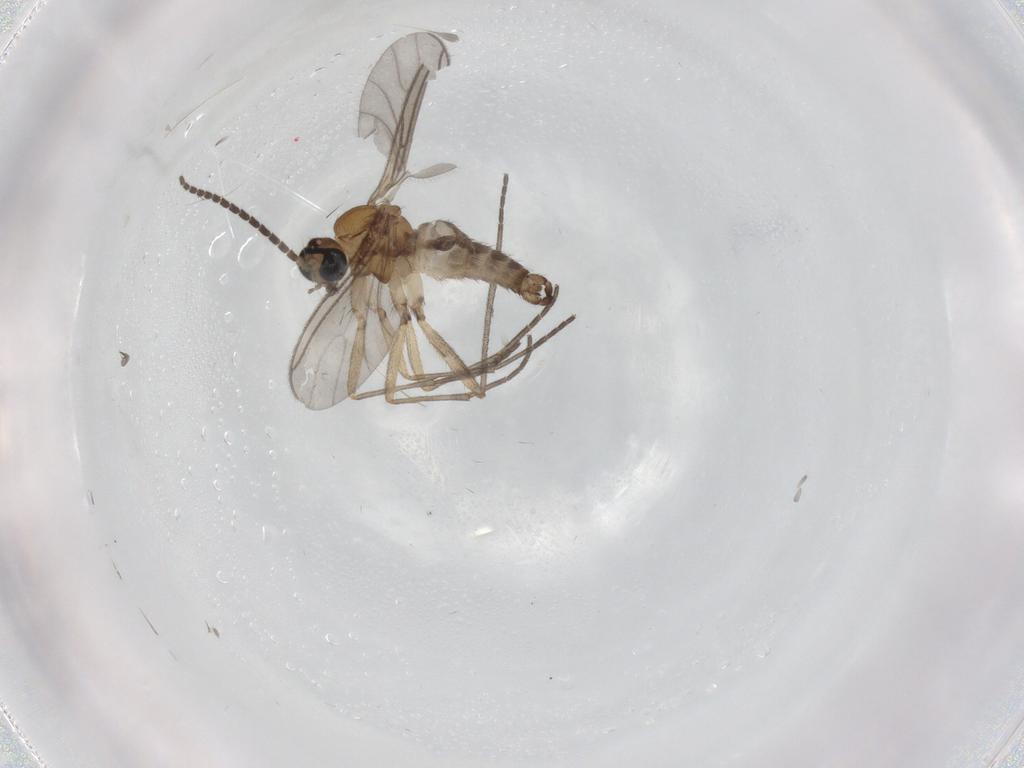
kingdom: Animalia
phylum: Arthropoda
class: Insecta
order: Diptera
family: Sciaridae
